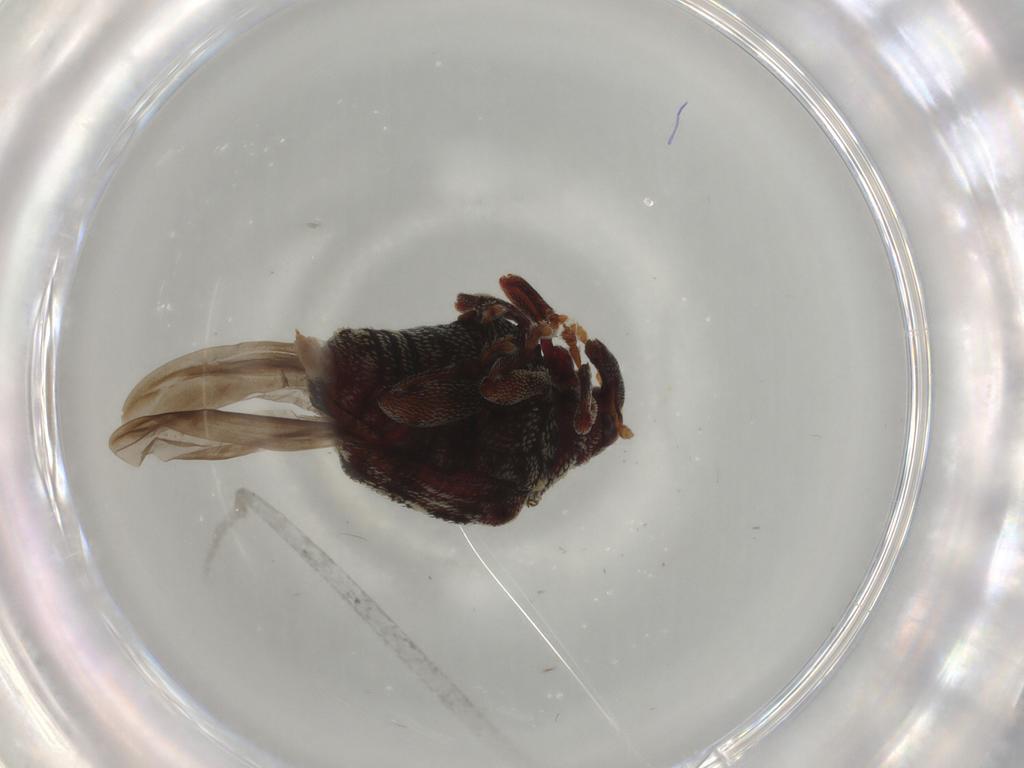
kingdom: Animalia
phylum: Arthropoda
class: Insecta
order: Coleoptera
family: Curculionidae
